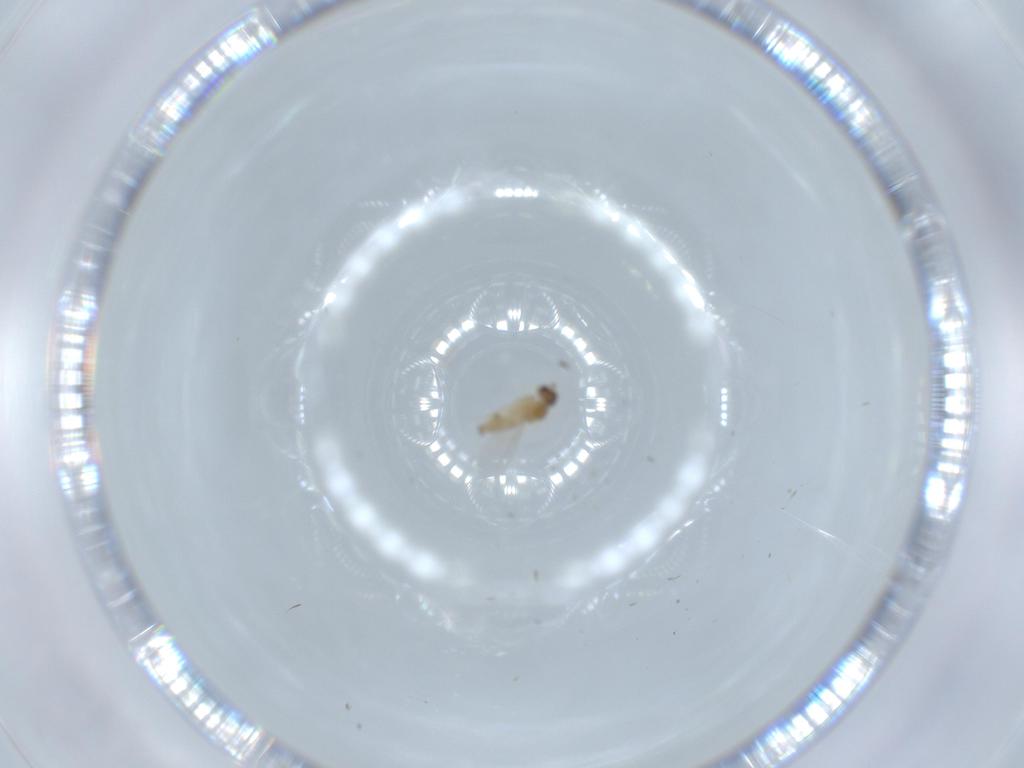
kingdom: Animalia
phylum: Arthropoda
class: Insecta
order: Diptera
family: Cecidomyiidae
